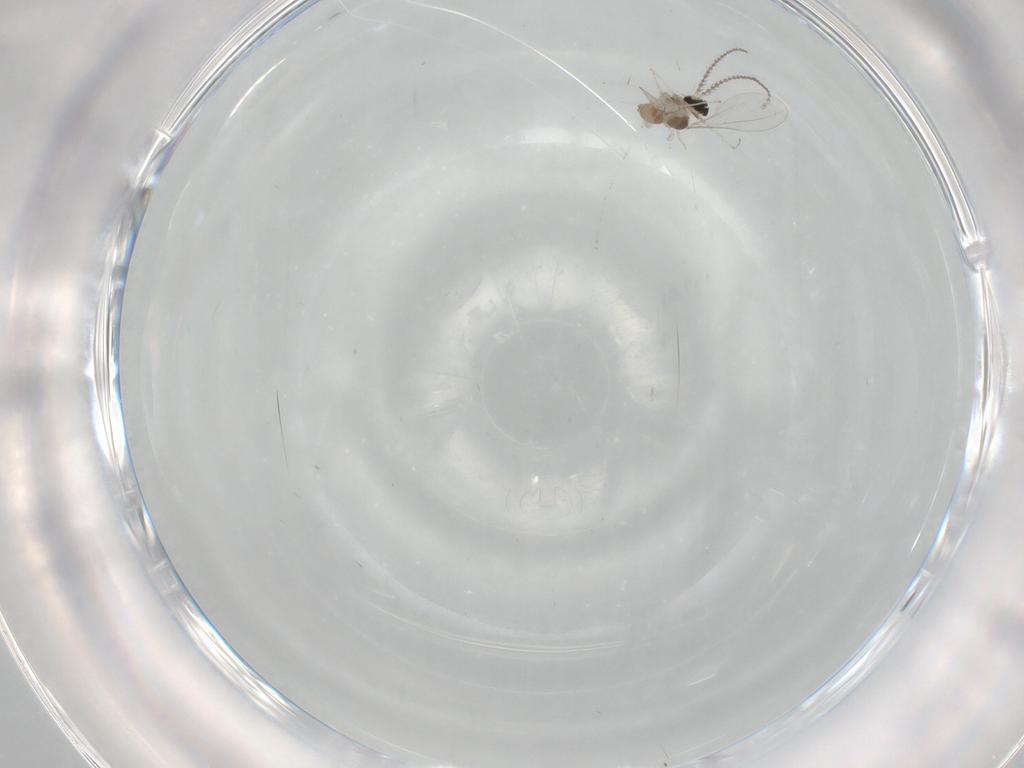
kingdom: Animalia
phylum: Arthropoda
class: Insecta
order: Diptera
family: Cecidomyiidae
